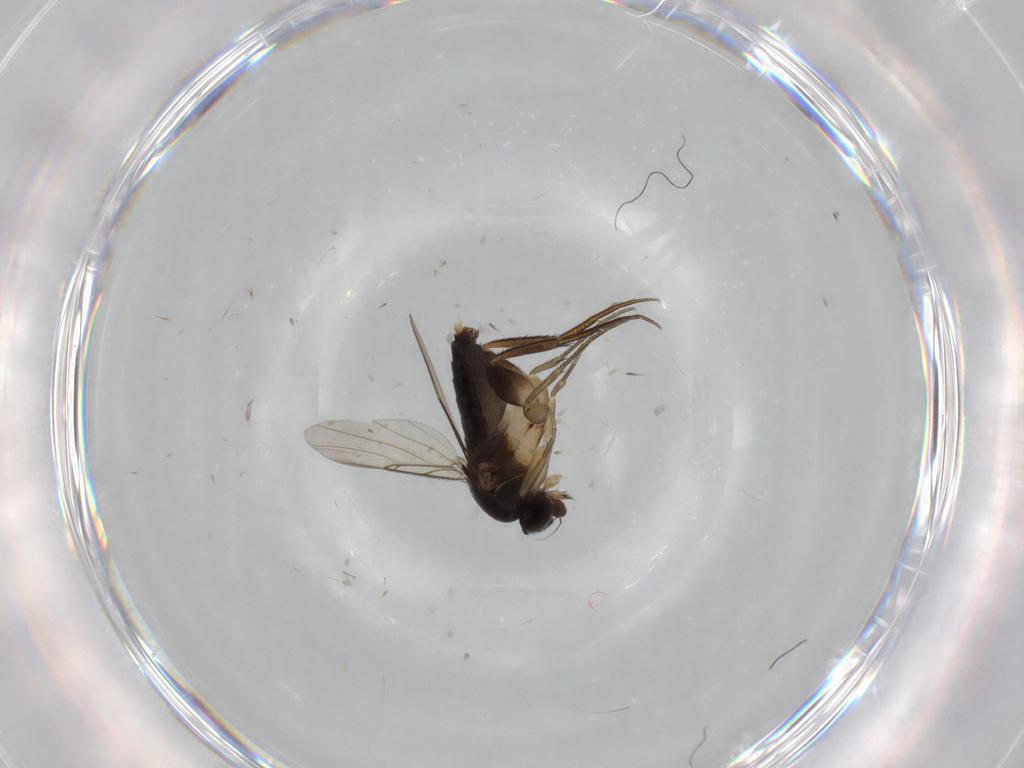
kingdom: Animalia
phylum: Arthropoda
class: Insecta
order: Diptera
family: Phoridae
